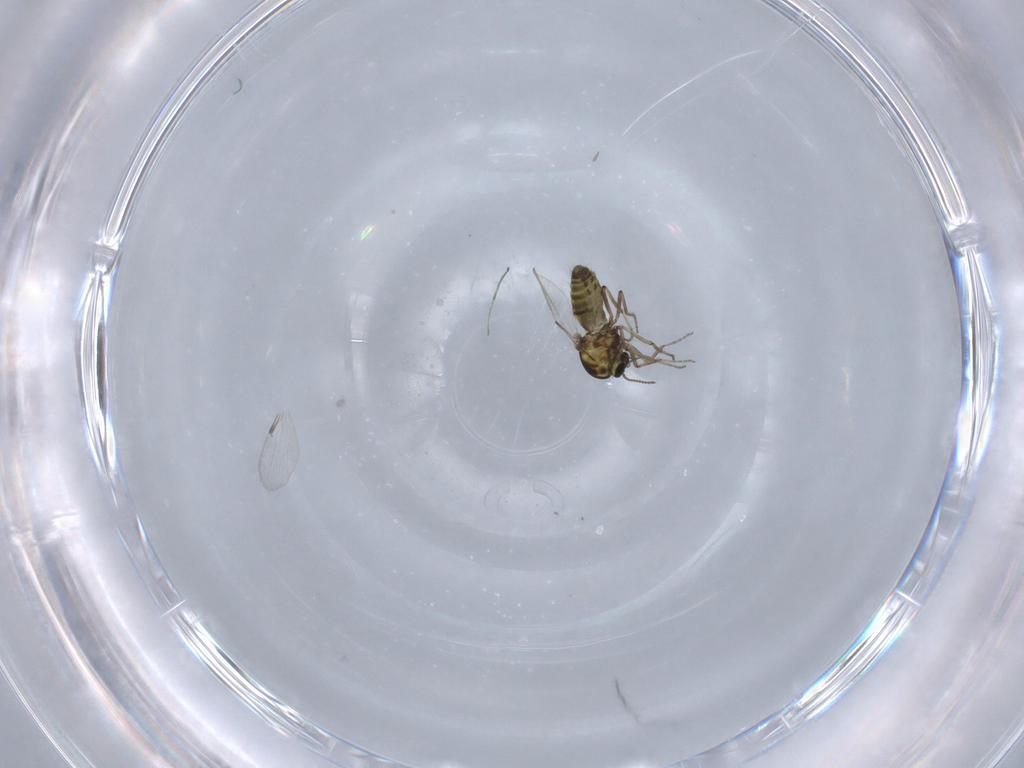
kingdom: Animalia
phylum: Arthropoda
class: Insecta
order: Diptera
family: Ceratopogonidae
